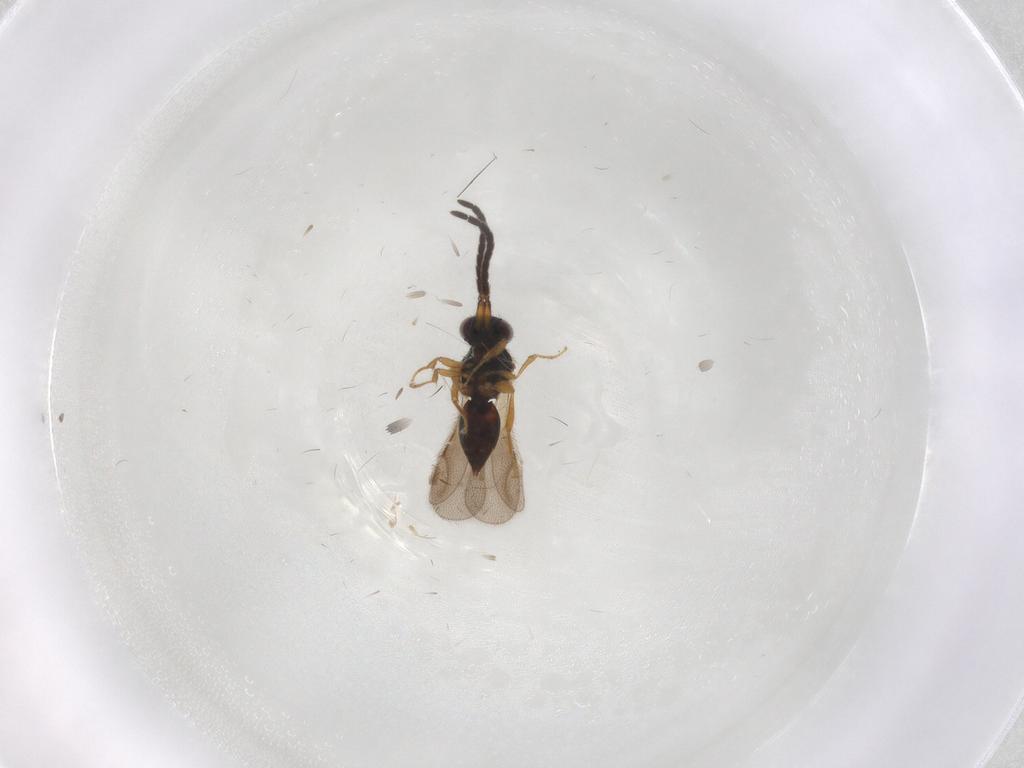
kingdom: Animalia
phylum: Arthropoda
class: Insecta
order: Hymenoptera
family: Ceraphronidae
